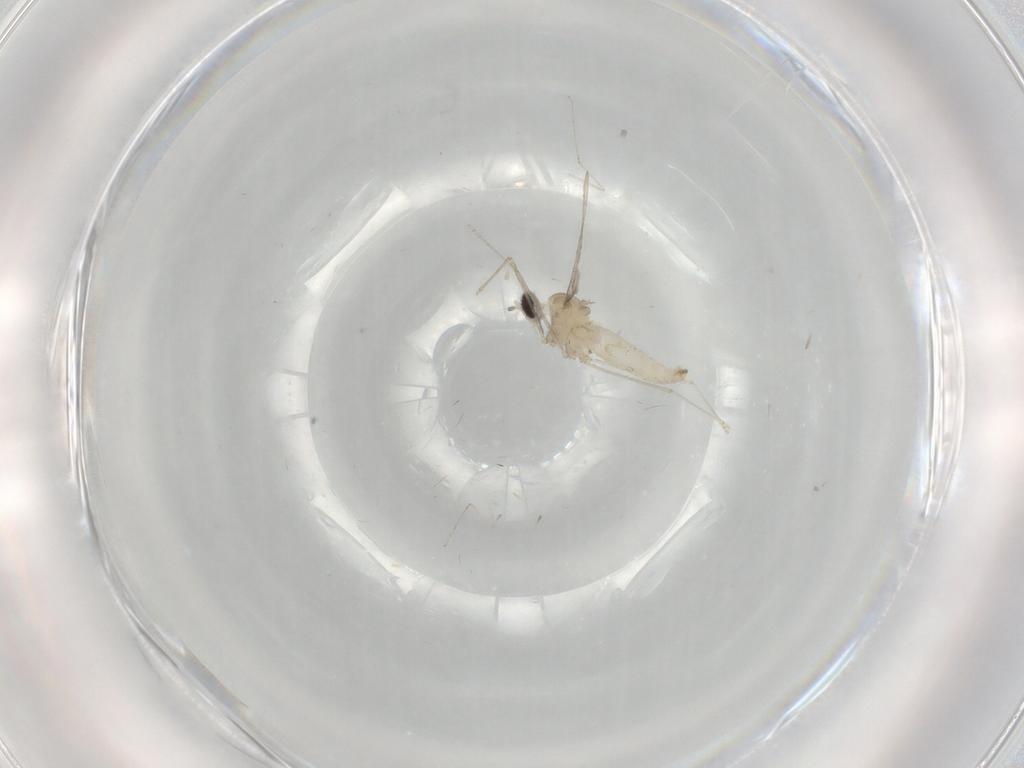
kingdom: Animalia
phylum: Arthropoda
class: Insecta
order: Diptera
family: Cecidomyiidae
